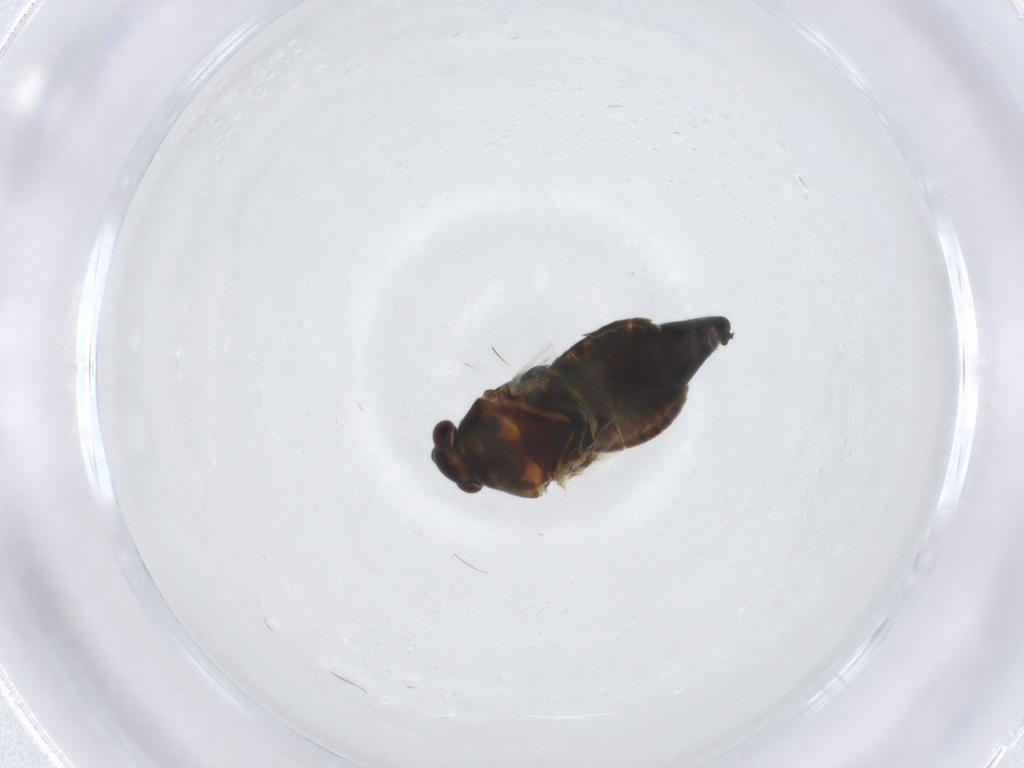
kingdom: Animalia
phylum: Arthropoda
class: Insecta
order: Hemiptera
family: Miridae
